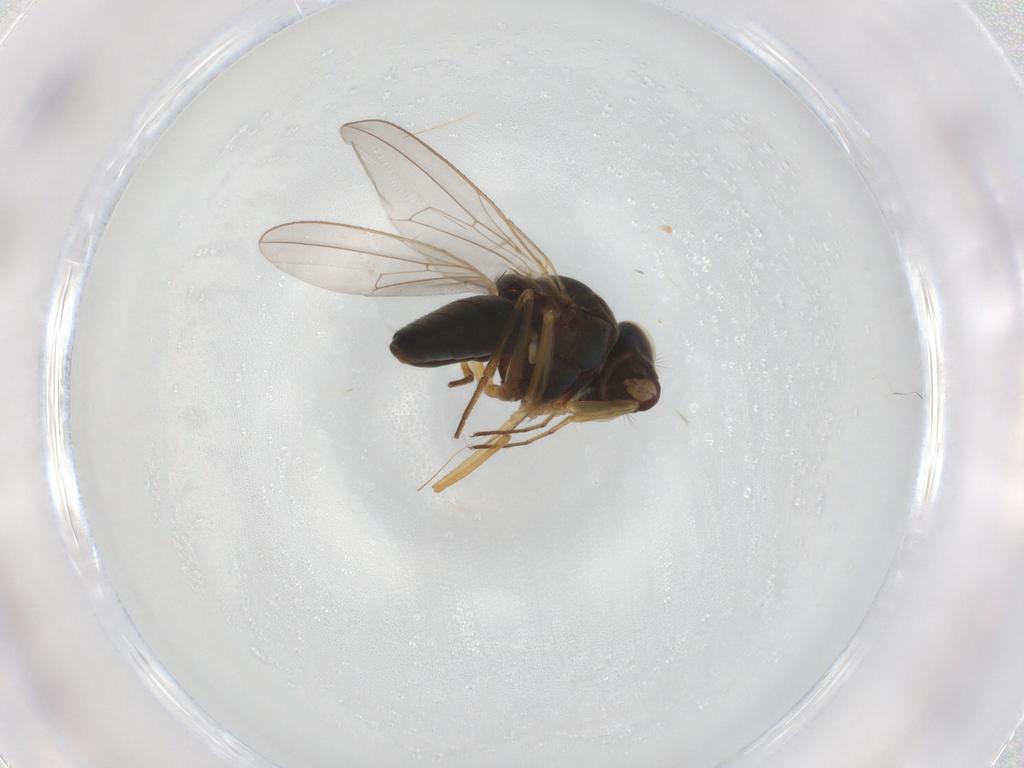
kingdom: Animalia
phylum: Arthropoda
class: Insecta
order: Diptera
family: Ephydridae
